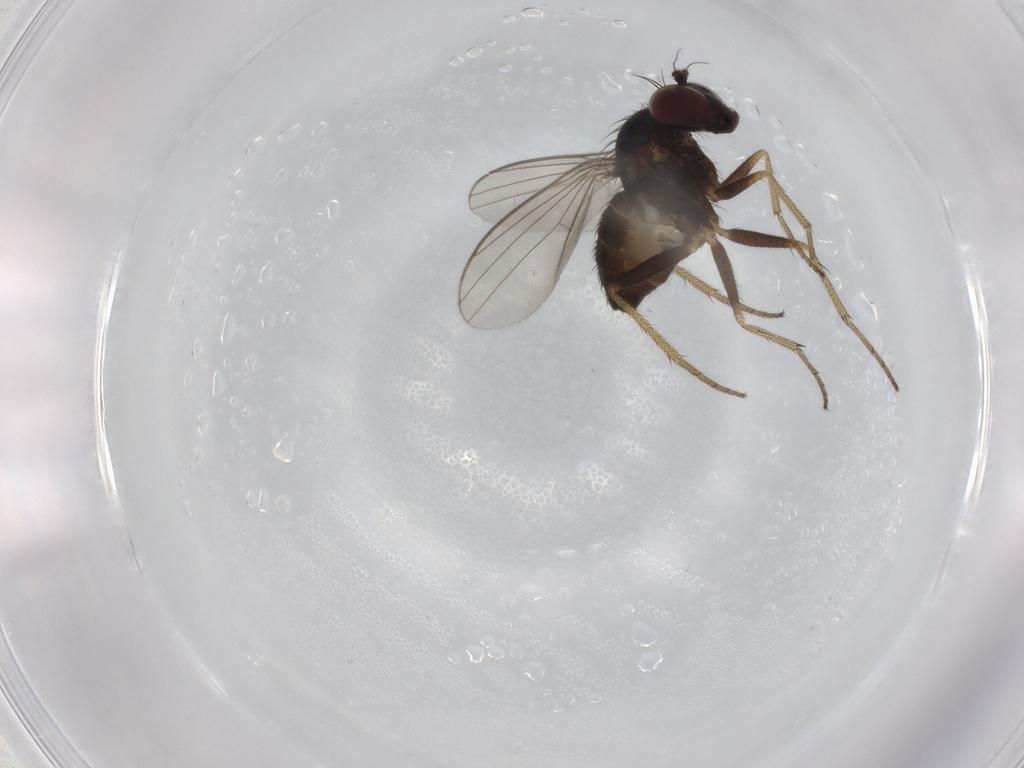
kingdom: Animalia
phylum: Arthropoda
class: Insecta
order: Diptera
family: Dolichopodidae
